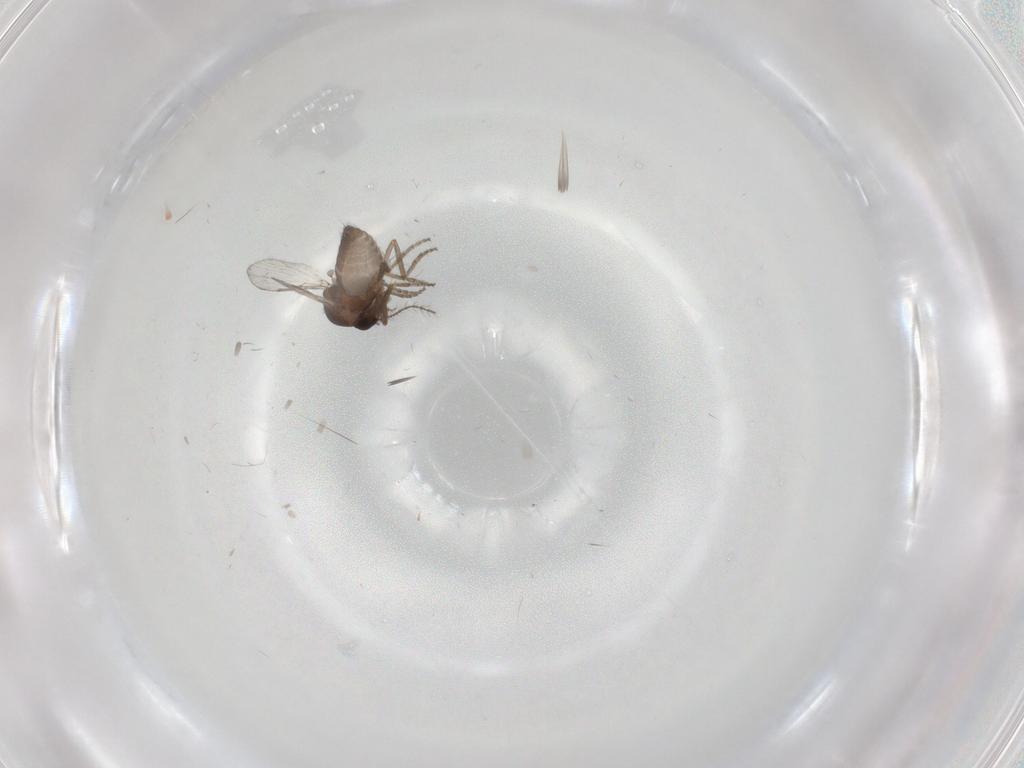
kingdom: Animalia
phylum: Arthropoda
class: Insecta
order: Diptera
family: Ceratopogonidae
